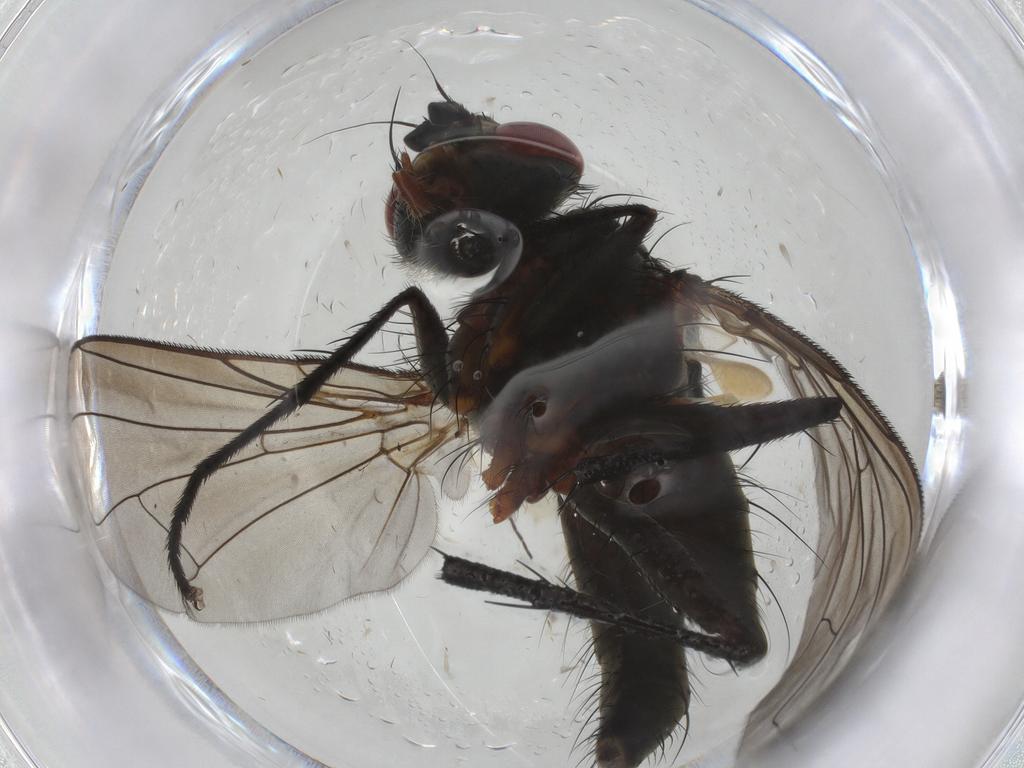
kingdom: Animalia
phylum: Arthropoda
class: Insecta
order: Diptera
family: Tachinidae
